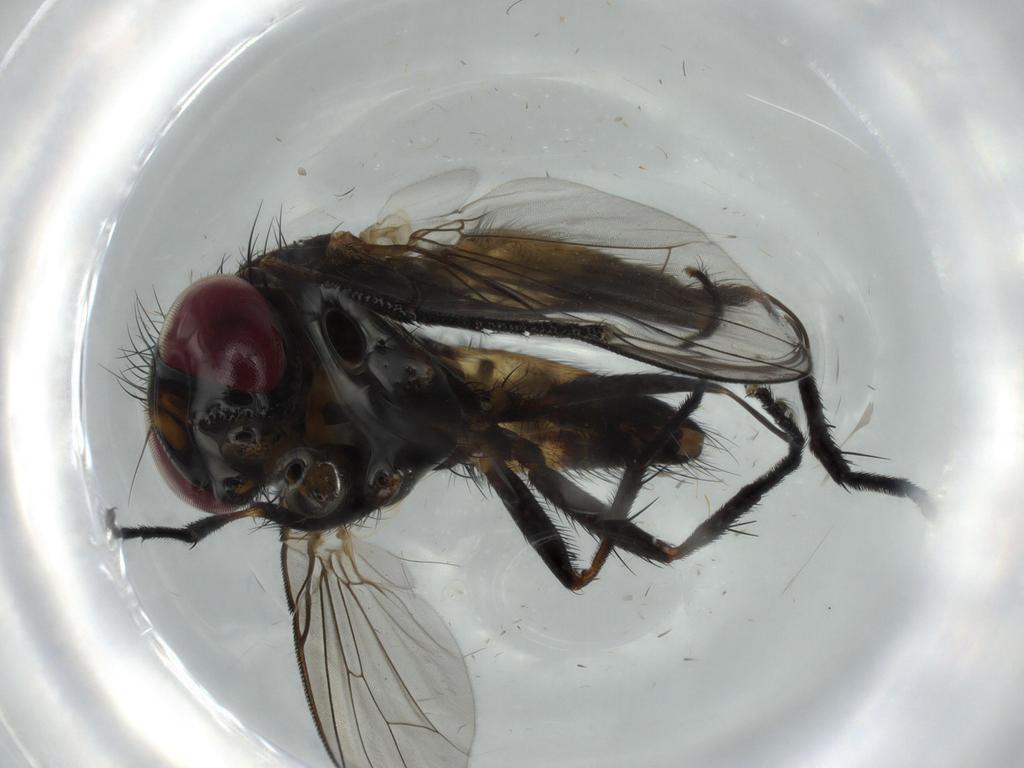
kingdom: Animalia
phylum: Arthropoda
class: Insecta
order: Diptera
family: Fannia
